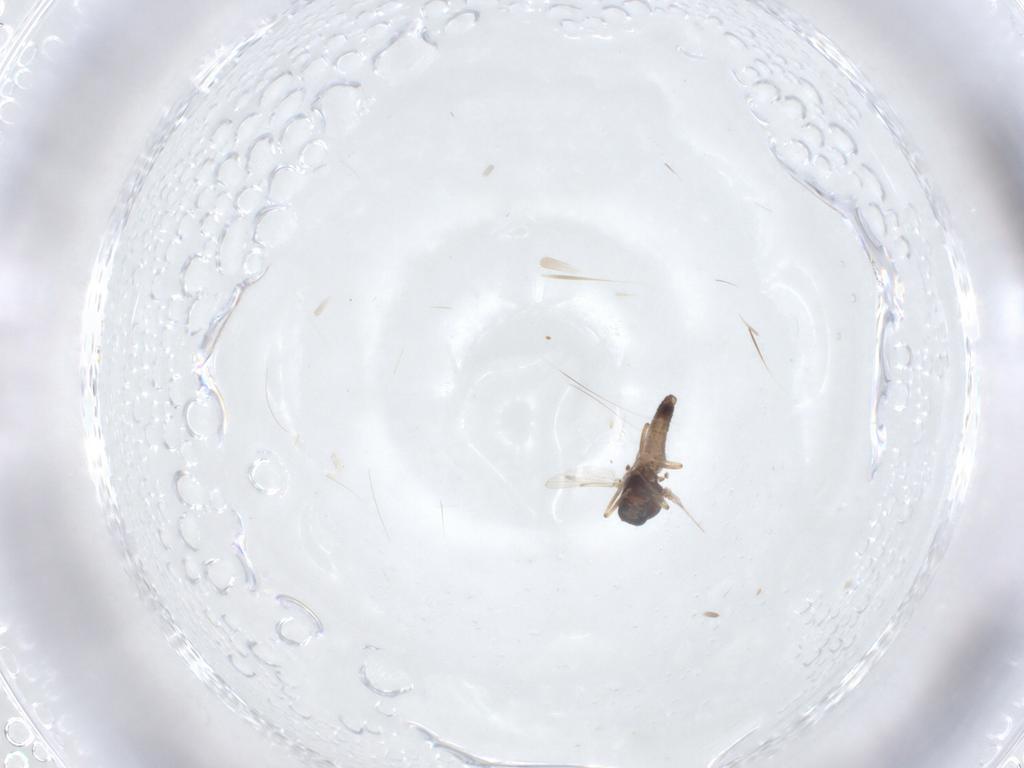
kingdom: Animalia
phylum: Arthropoda
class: Insecta
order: Diptera
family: Ceratopogonidae
